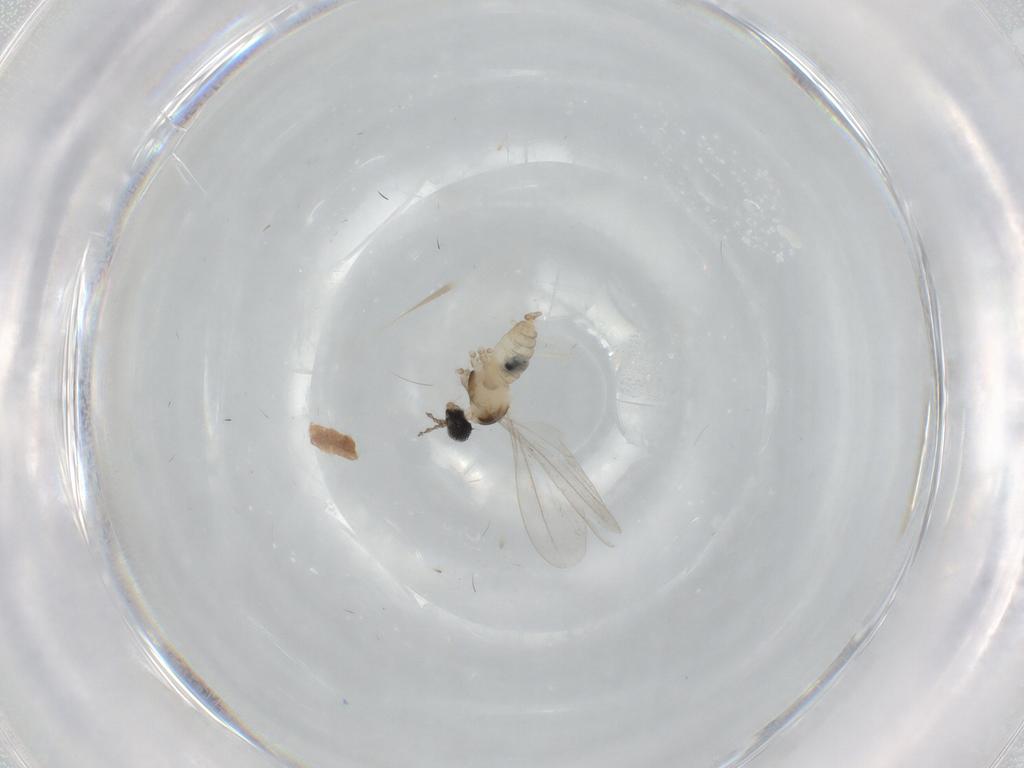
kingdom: Animalia
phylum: Arthropoda
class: Insecta
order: Diptera
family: Cecidomyiidae
